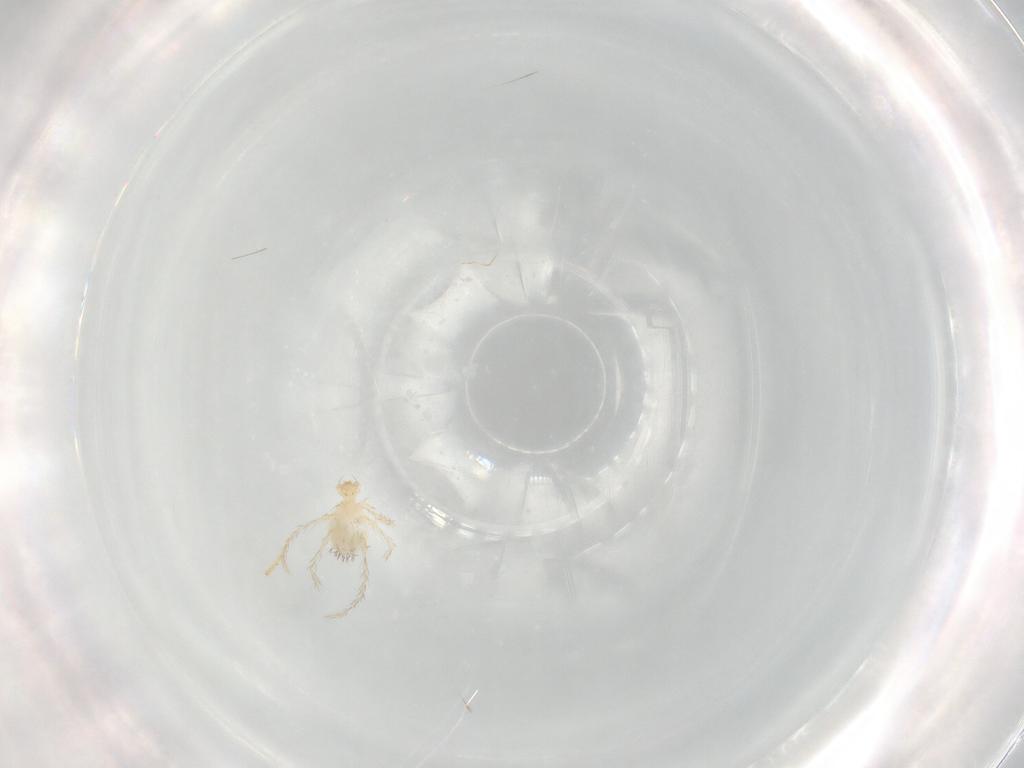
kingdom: Animalia
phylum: Arthropoda
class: Arachnida
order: Trombidiformes
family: Erythraeidae
